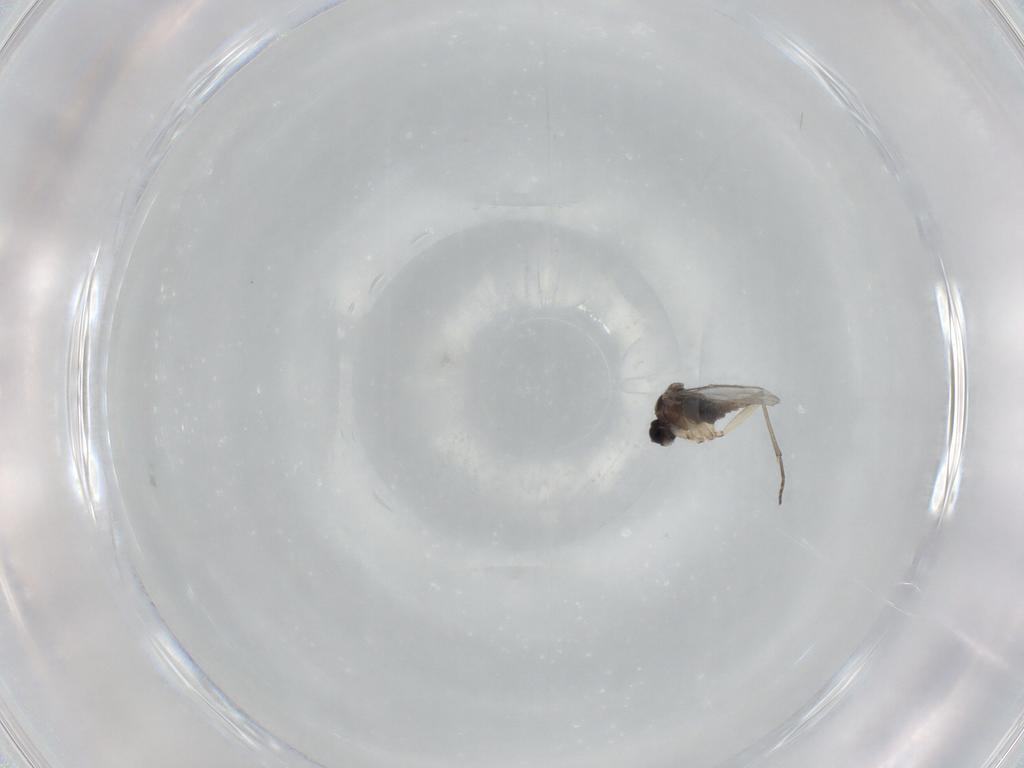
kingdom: Animalia
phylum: Arthropoda
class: Insecta
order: Diptera
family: Sciaridae
